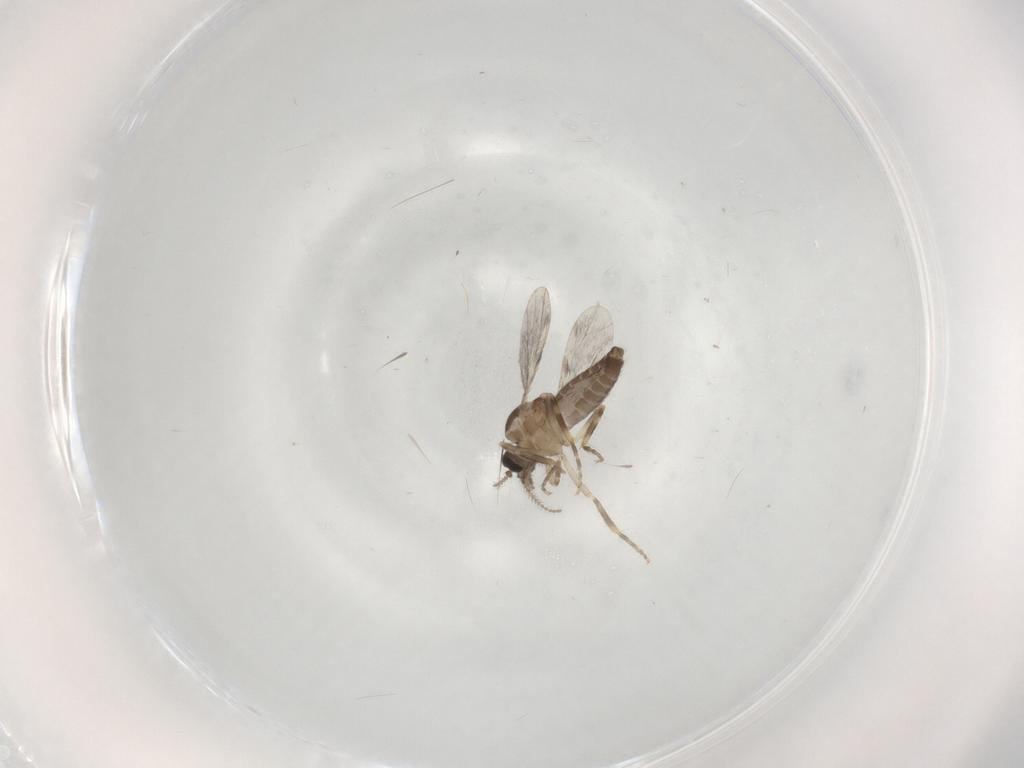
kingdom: Animalia
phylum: Arthropoda
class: Insecta
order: Diptera
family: Ceratopogonidae
